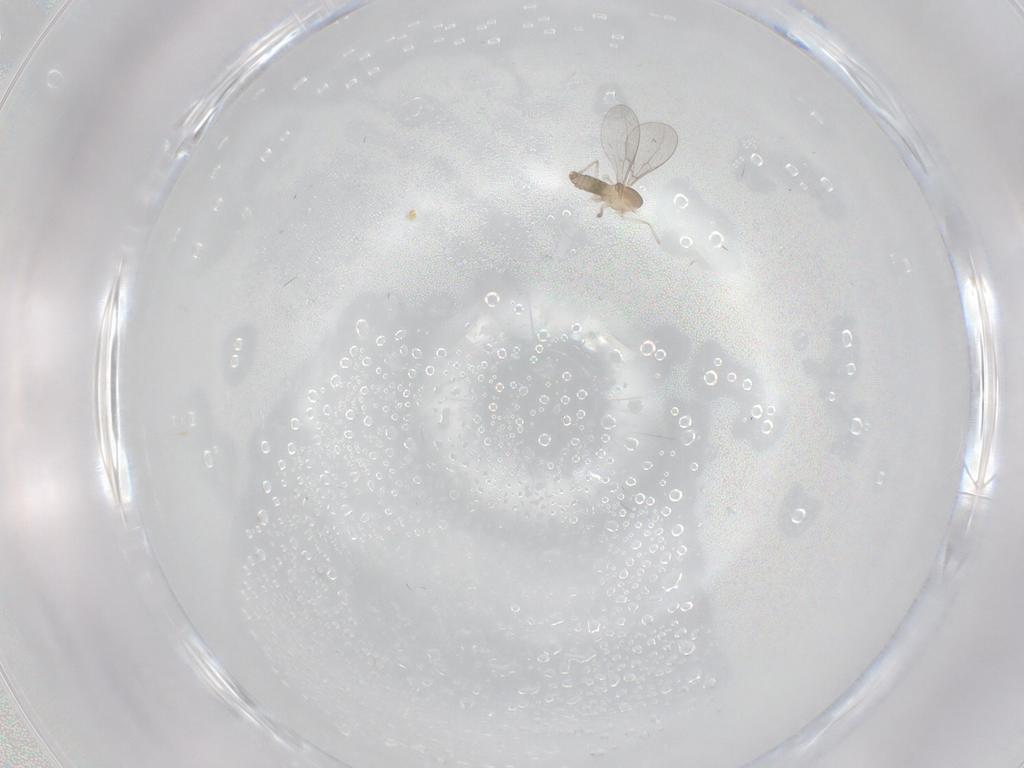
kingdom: Animalia
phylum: Arthropoda
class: Insecta
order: Diptera
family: Cecidomyiidae
